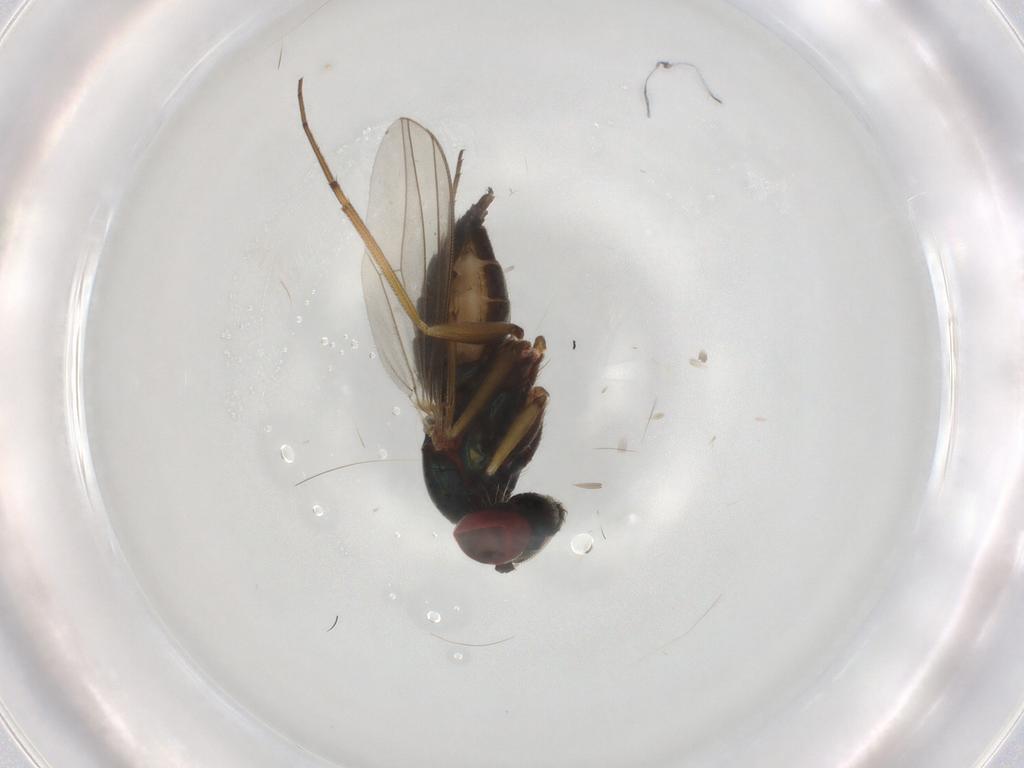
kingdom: Animalia
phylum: Arthropoda
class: Insecta
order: Diptera
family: Dolichopodidae
